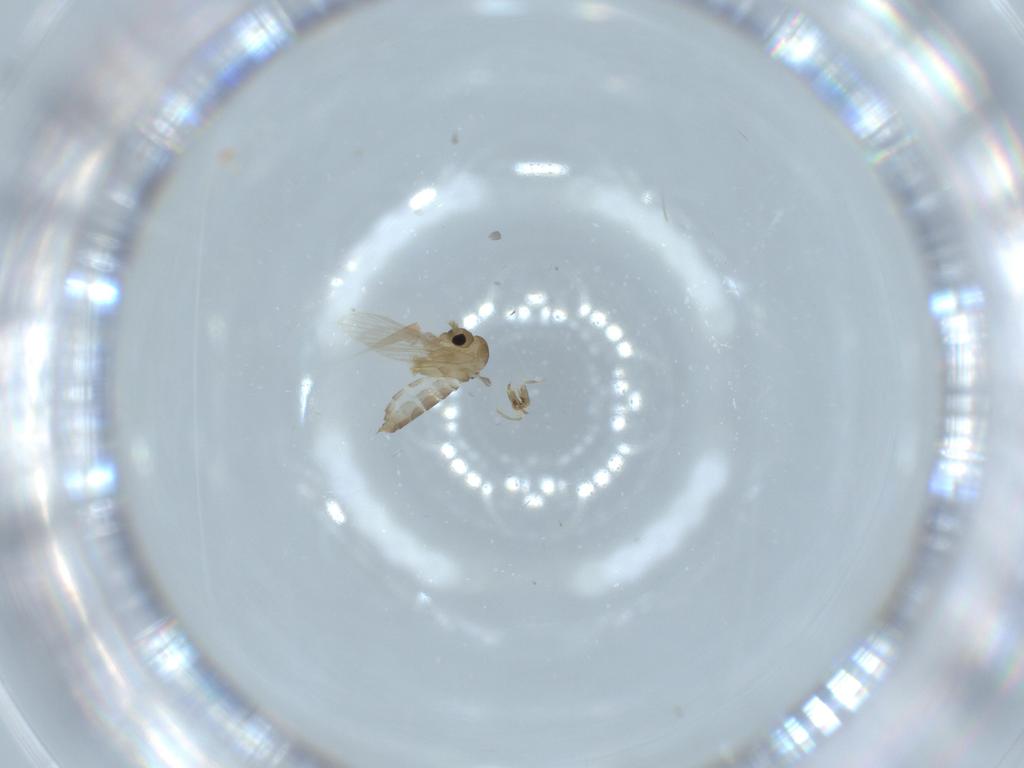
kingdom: Animalia
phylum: Arthropoda
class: Insecta
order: Diptera
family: Psychodidae
